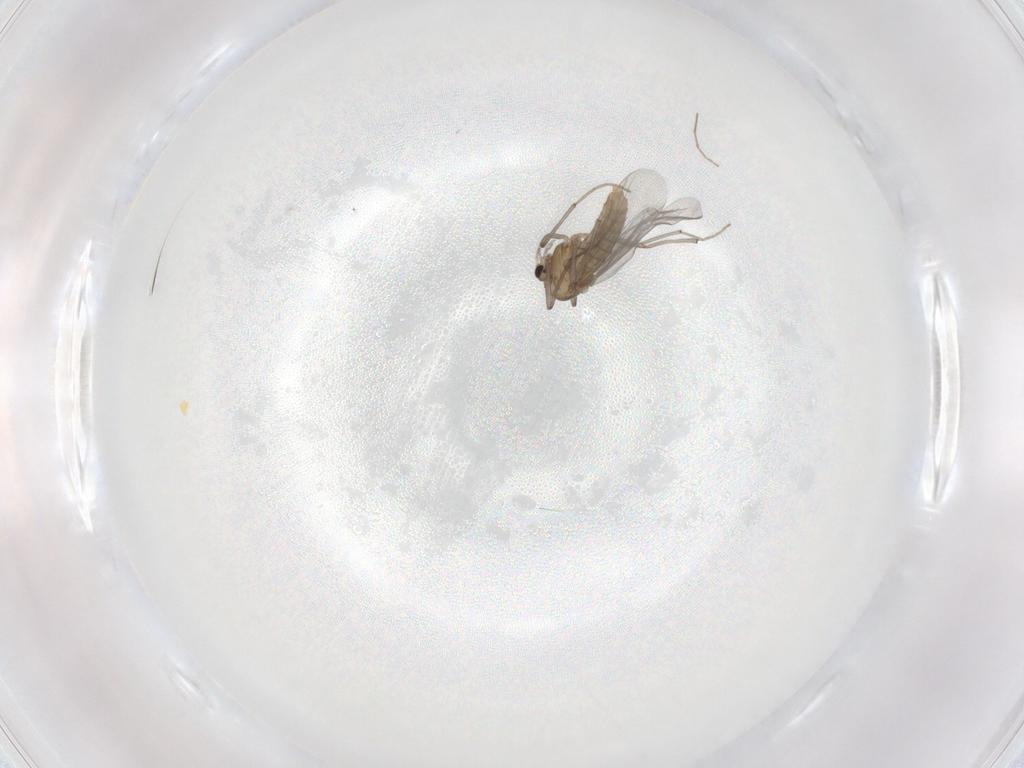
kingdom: Animalia
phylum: Arthropoda
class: Insecta
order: Diptera
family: Chironomidae
